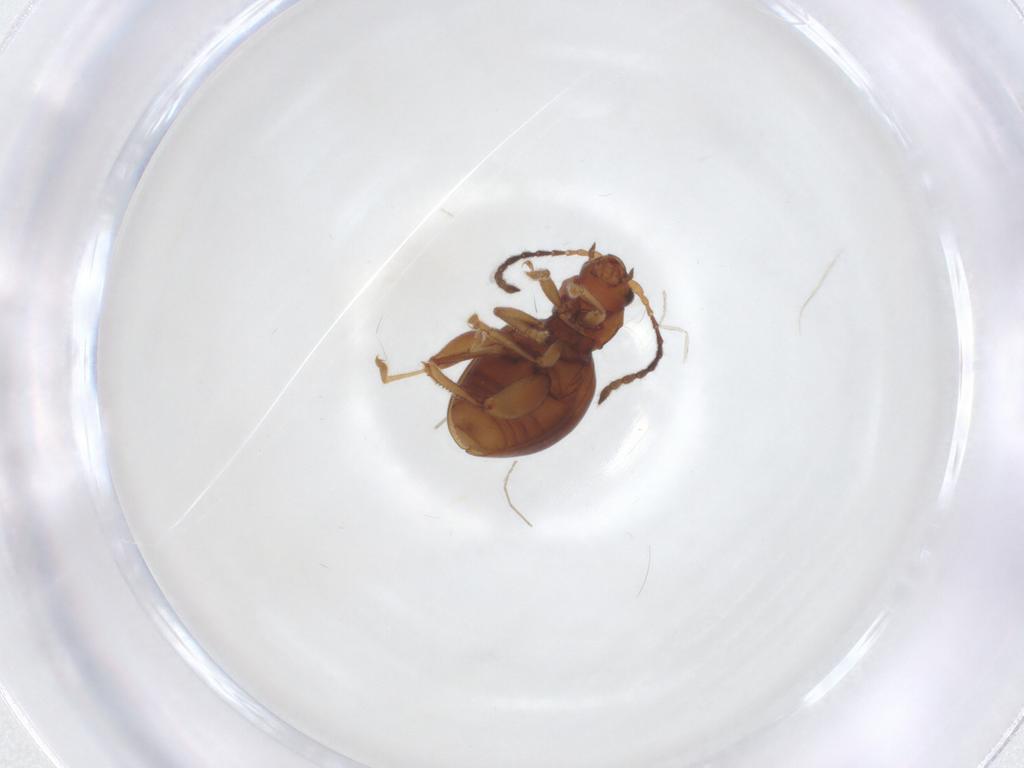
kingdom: Animalia
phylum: Arthropoda
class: Insecta
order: Coleoptera
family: Chrysomelidae
